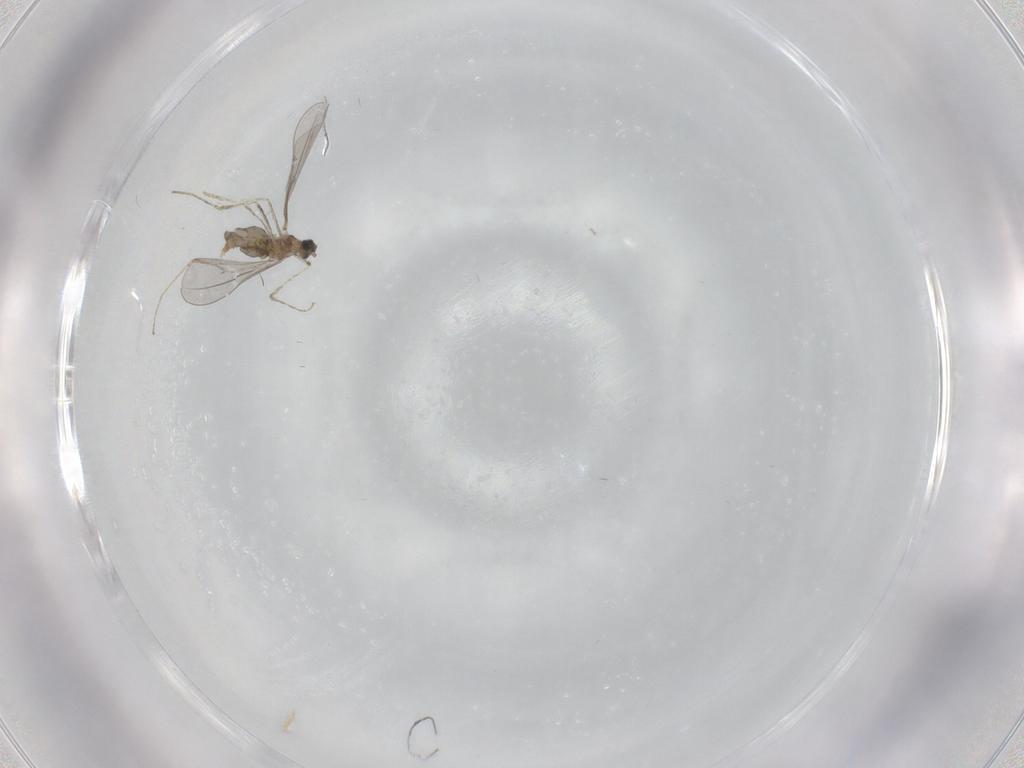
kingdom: Animalia
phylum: Arthropoda
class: Insecta
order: Diptera
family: Cecidomyiidae
